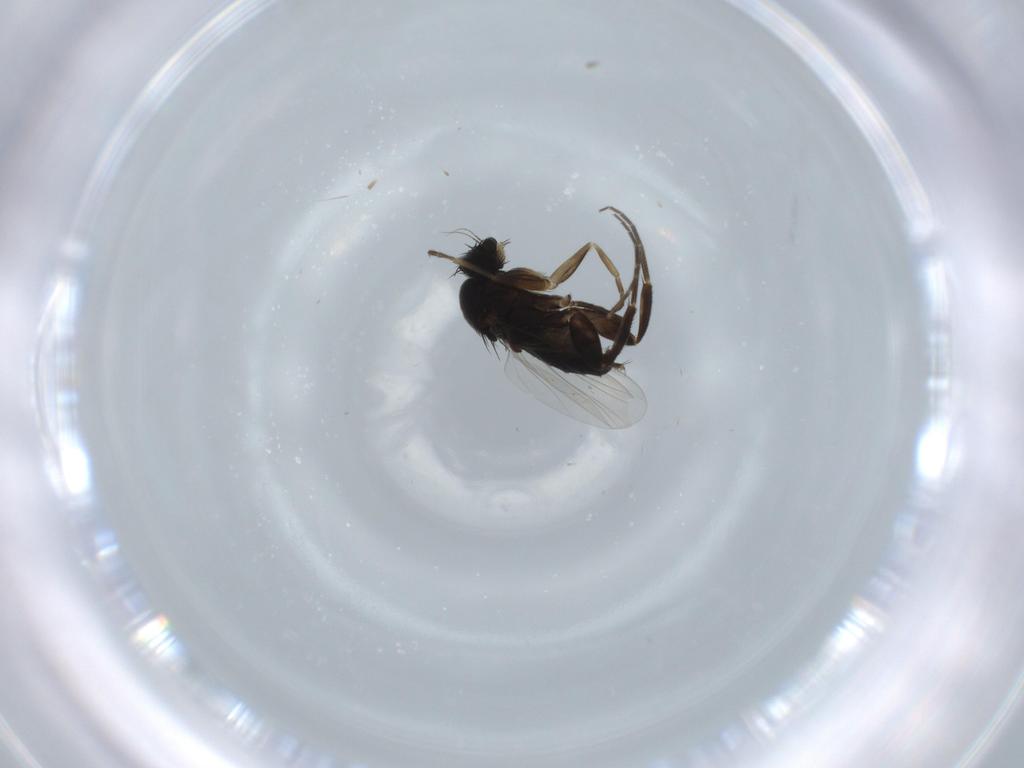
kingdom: Animalia
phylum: Arthropoda
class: Insecta
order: Diptera
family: Phoridae
